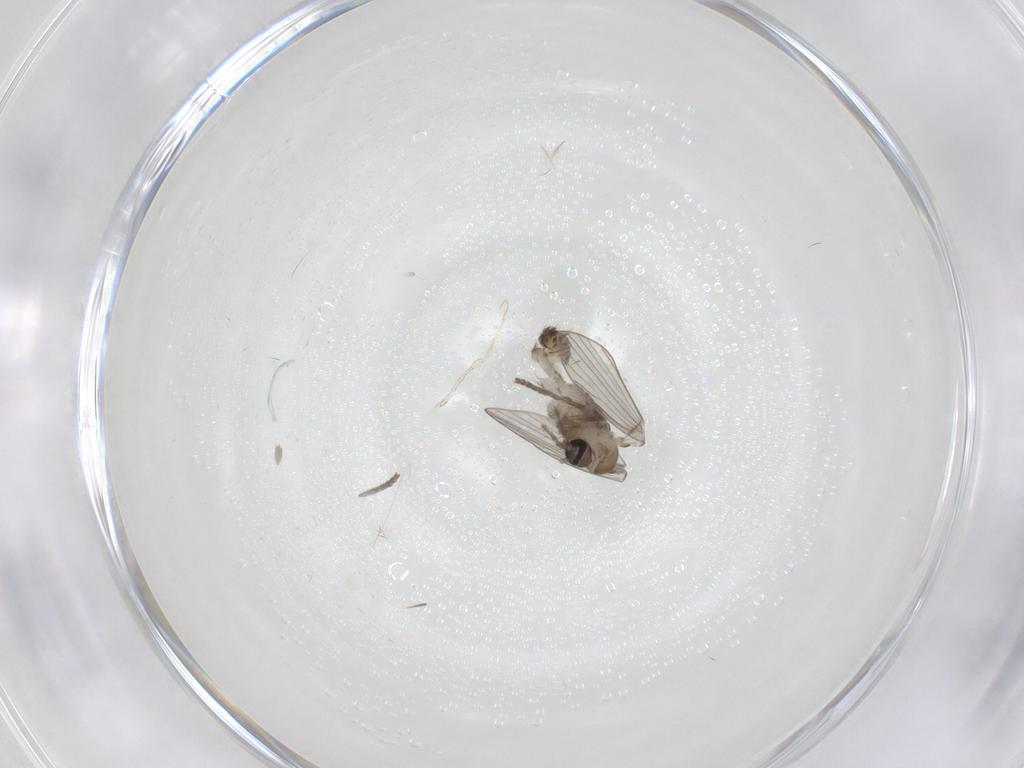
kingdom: Animalia
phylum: Arthropoda
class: Insecta
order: Diptera
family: Psychodidae
